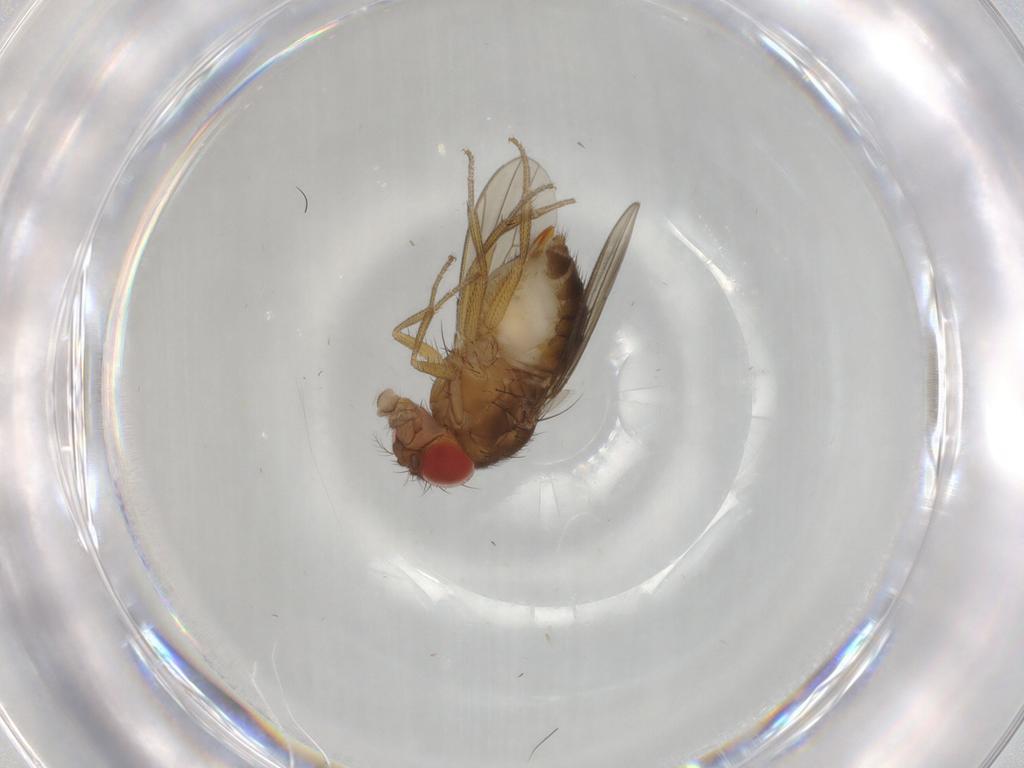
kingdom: Animalia
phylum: Arthropoda
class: Insecta
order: Diptera
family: Drosophilidae
